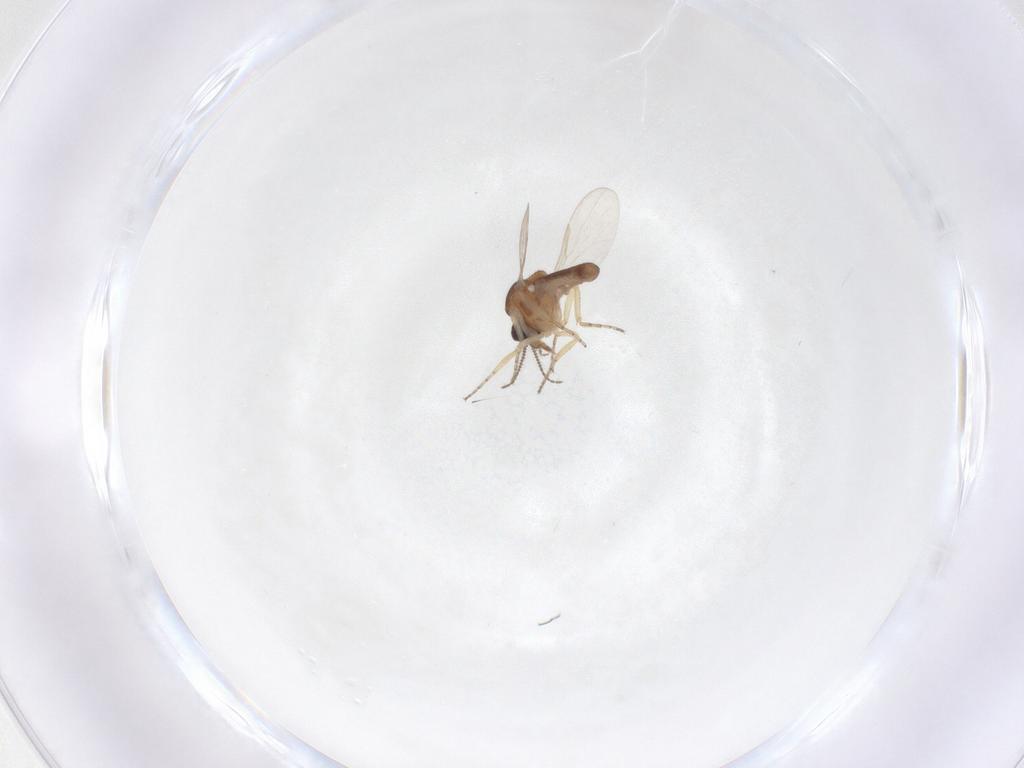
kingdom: Animalia
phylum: Arthropoda
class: Insecta
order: Diptera
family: Ceratopogonidae
